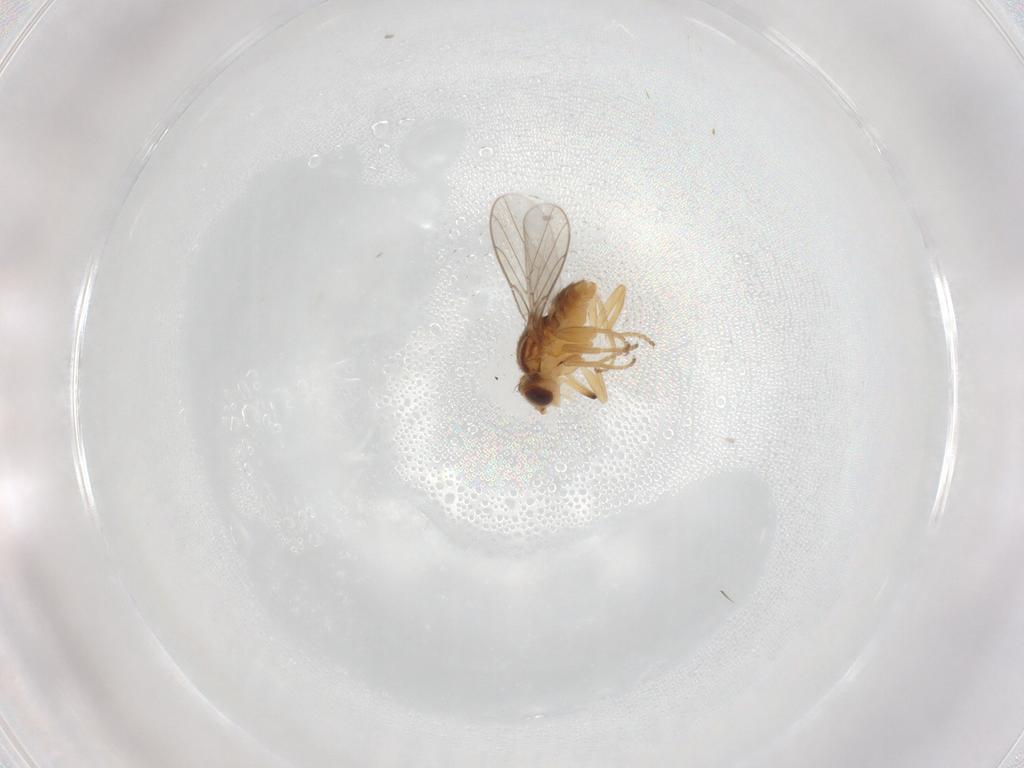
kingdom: Animalia
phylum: Arthropoda
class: Insecta
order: Diptera
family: Chloropidae
